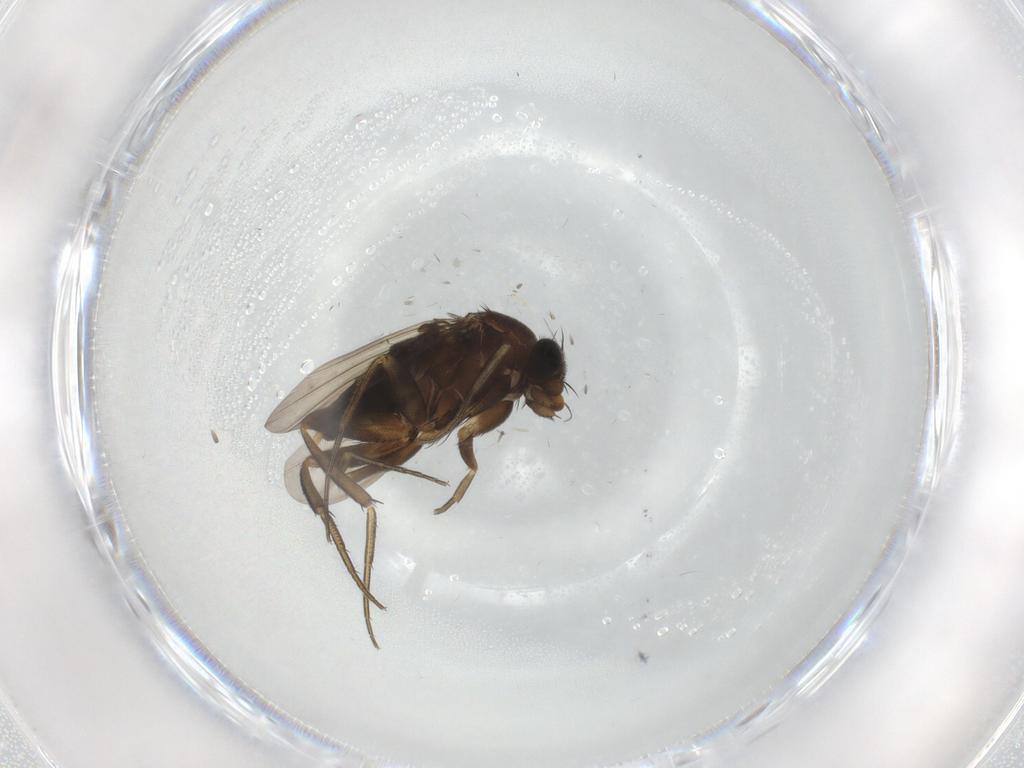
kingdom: Animalia
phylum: Arthropoda
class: Insecta
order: Diptera
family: Phoridae
